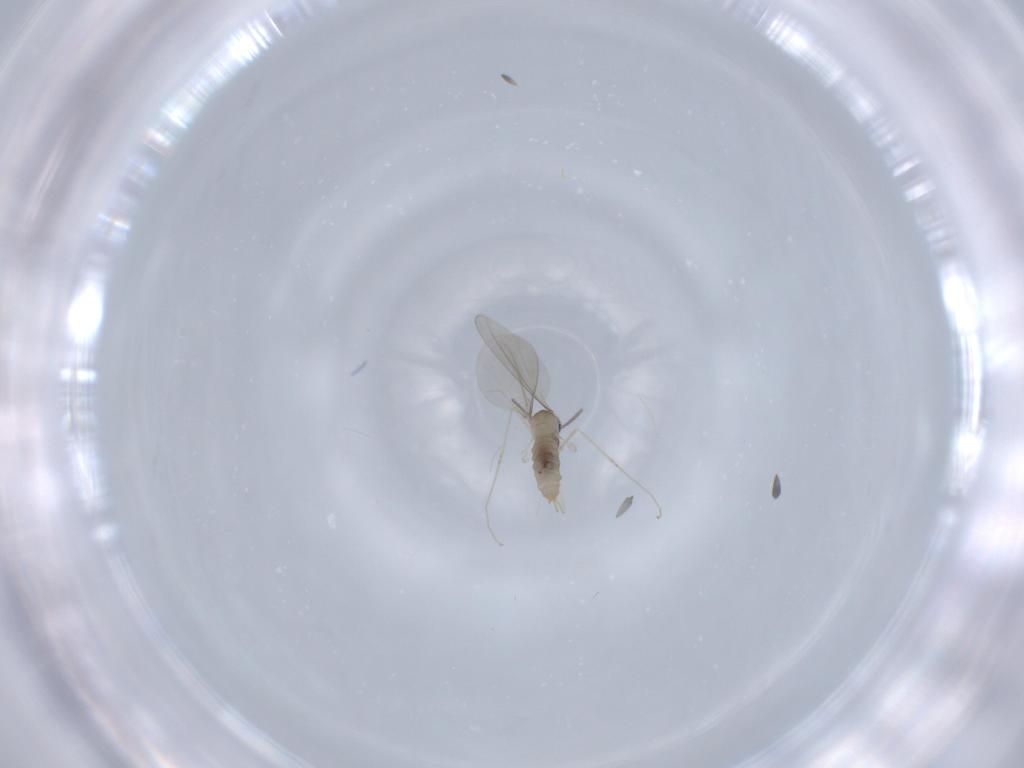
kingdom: Animalia
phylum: Arthropoda
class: Insecta
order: Diptera
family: Cecidomyiidae
